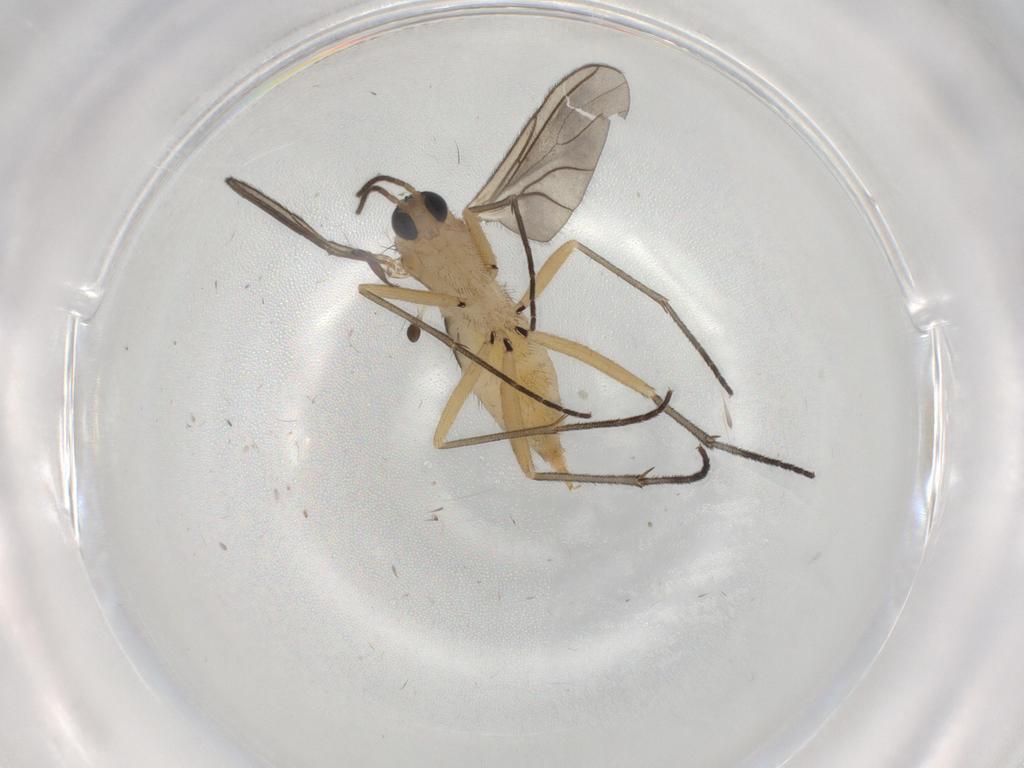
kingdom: Animalia
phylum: Arthropoda
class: Insecta
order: Diptera
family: Sciaridae
